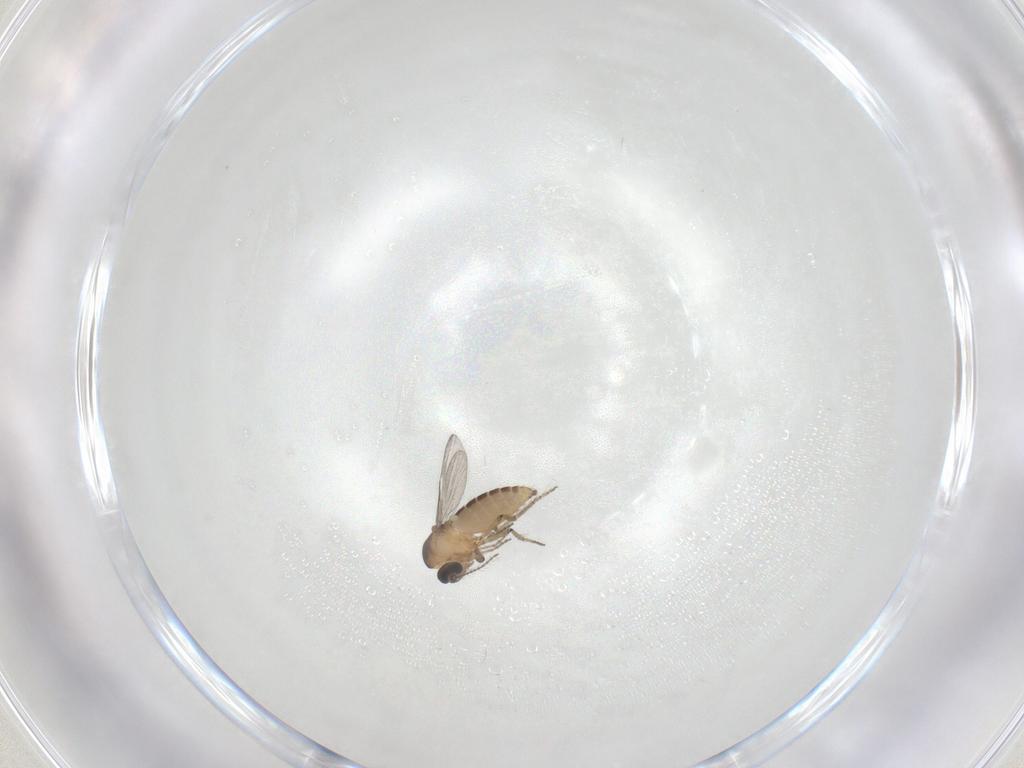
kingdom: Animalia
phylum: Arthropoda
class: Insecta
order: Diptera
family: Ceratopogonidae
